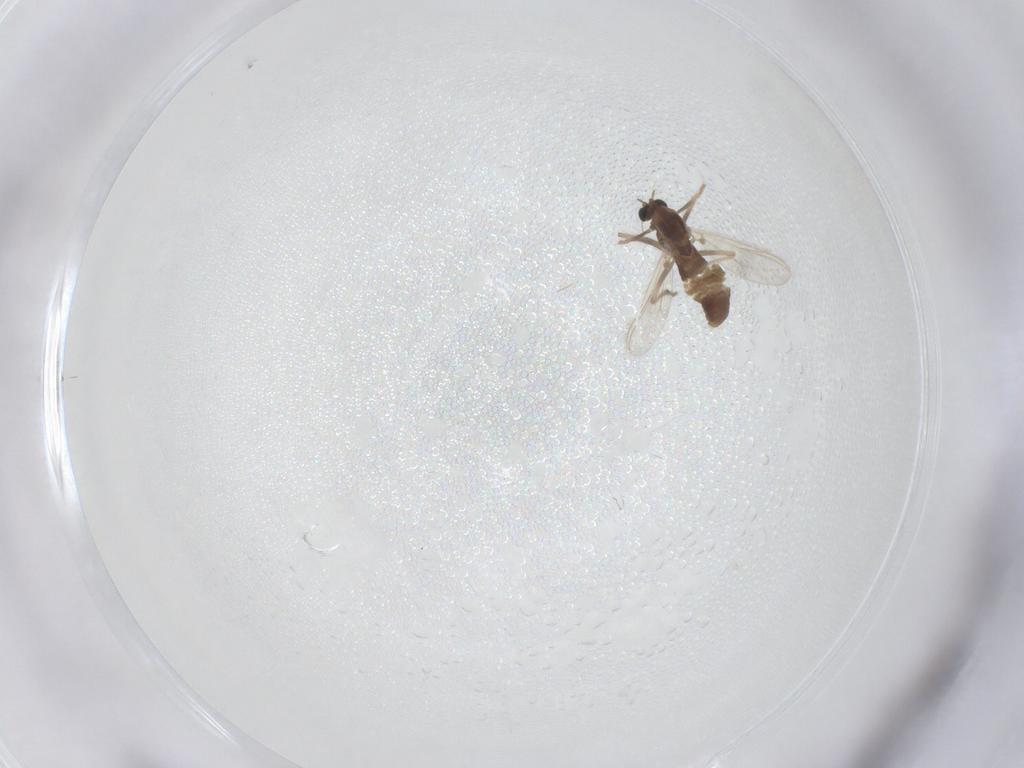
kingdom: Animalia
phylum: Arthropoda
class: Insecta
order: Diptera
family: Chironomidae
